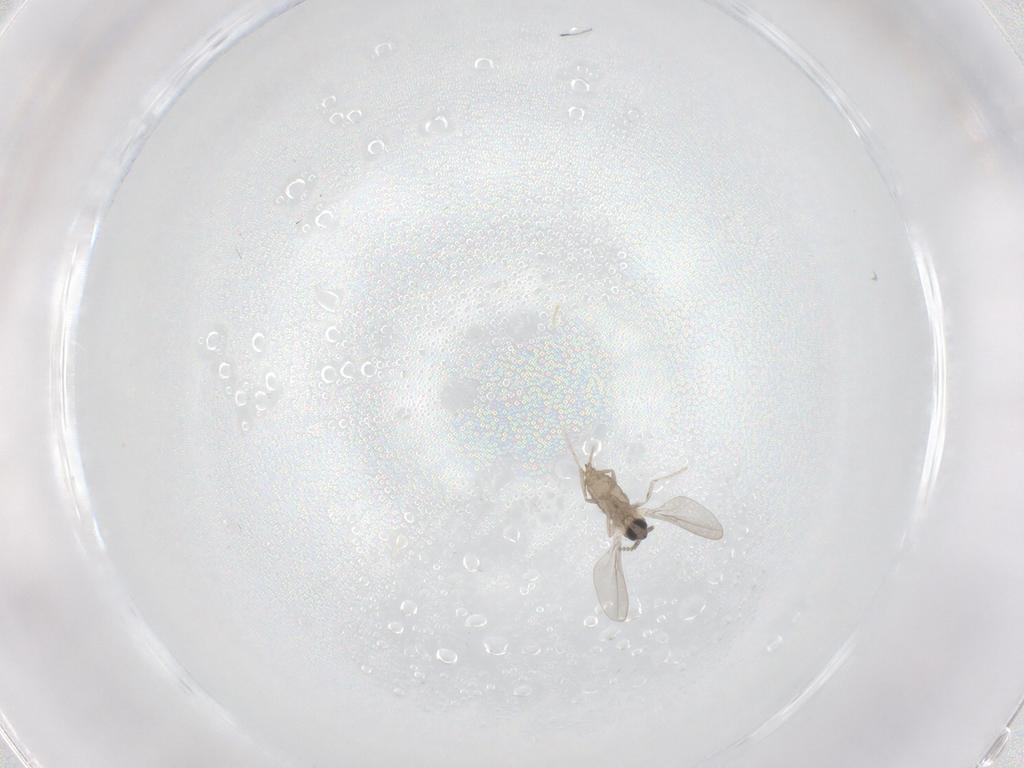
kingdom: Animalia
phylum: Arthropoda
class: Insecta
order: Diptera
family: Cecidomyiidae
